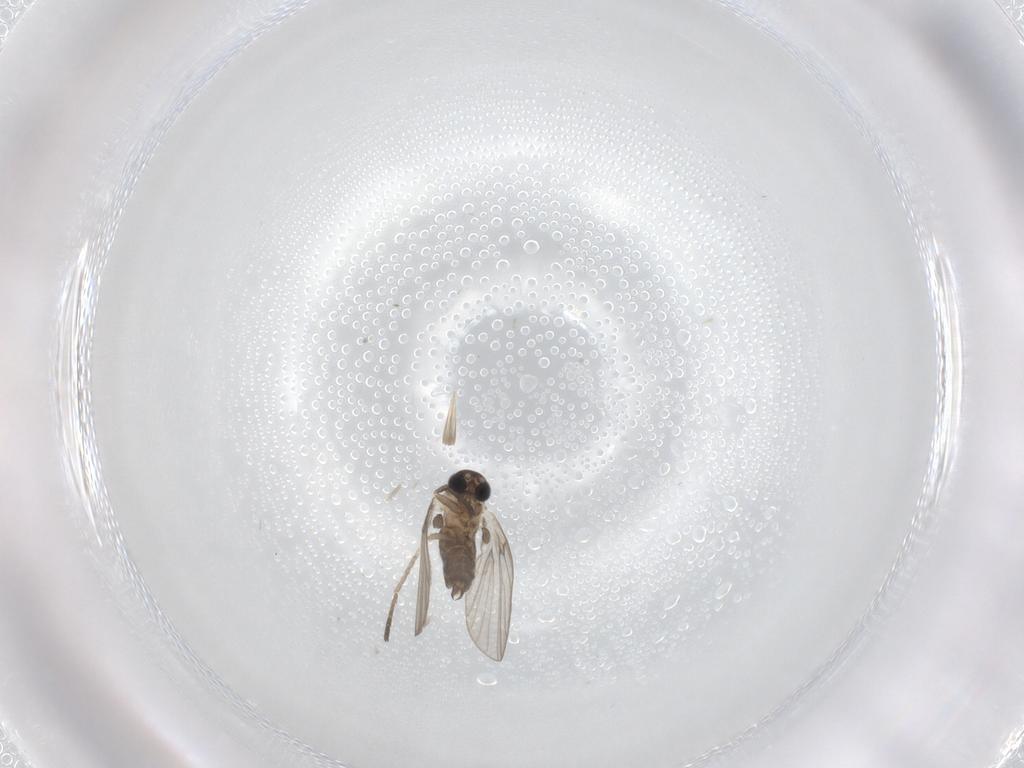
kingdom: Animalia
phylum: Arthropoda
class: Insecta
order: Diptera
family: Psychodidae
